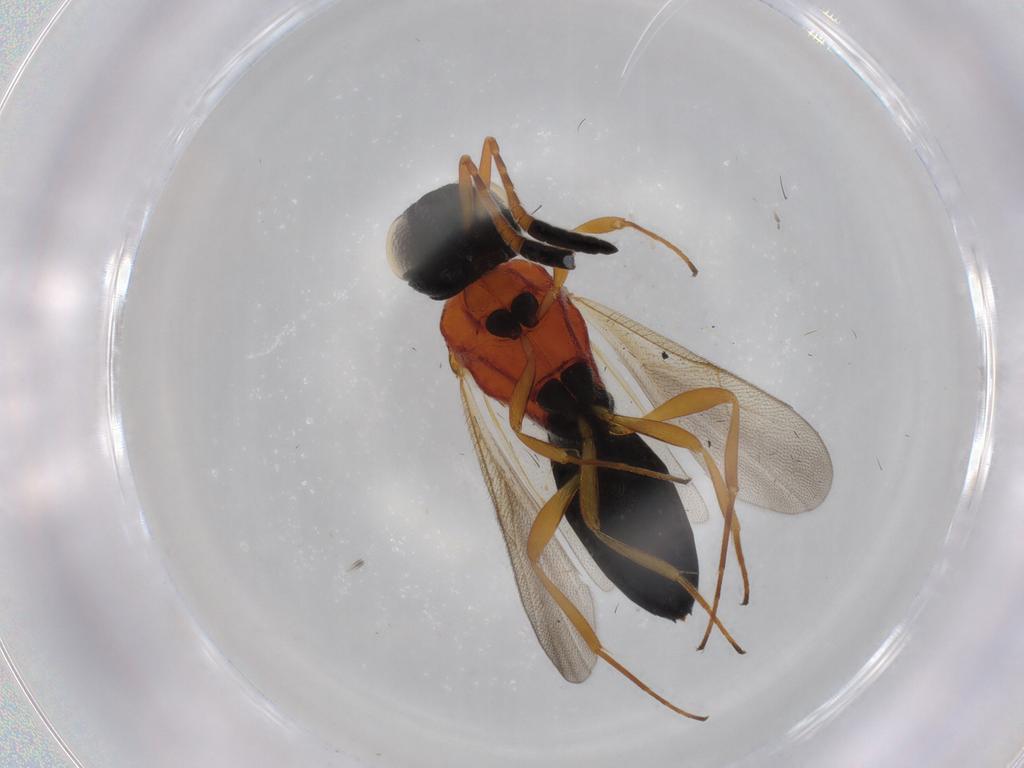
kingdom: Animalia
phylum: Arthropoda
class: Insecta
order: Hymenoptera
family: Scelionidae
